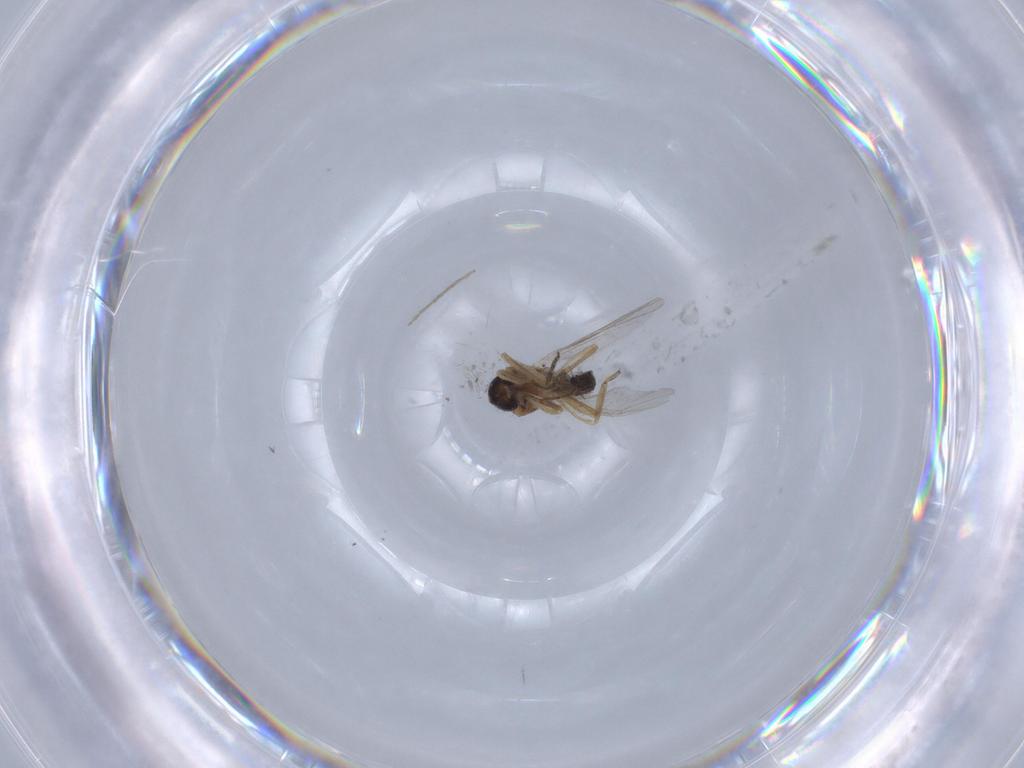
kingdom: Animalia
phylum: Arthropoda
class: Insecta
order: Diptera
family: Ceratopogonidae
